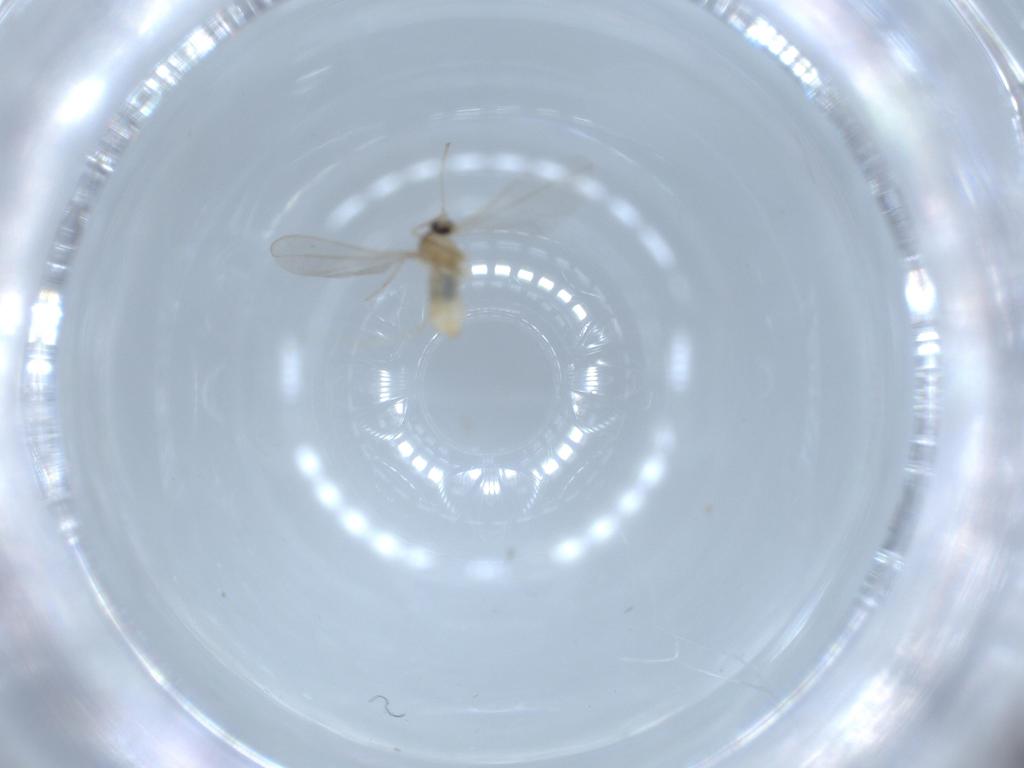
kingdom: Animalia
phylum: Arthropoda
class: Insecta
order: Diptera
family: Cecidomyiidae
